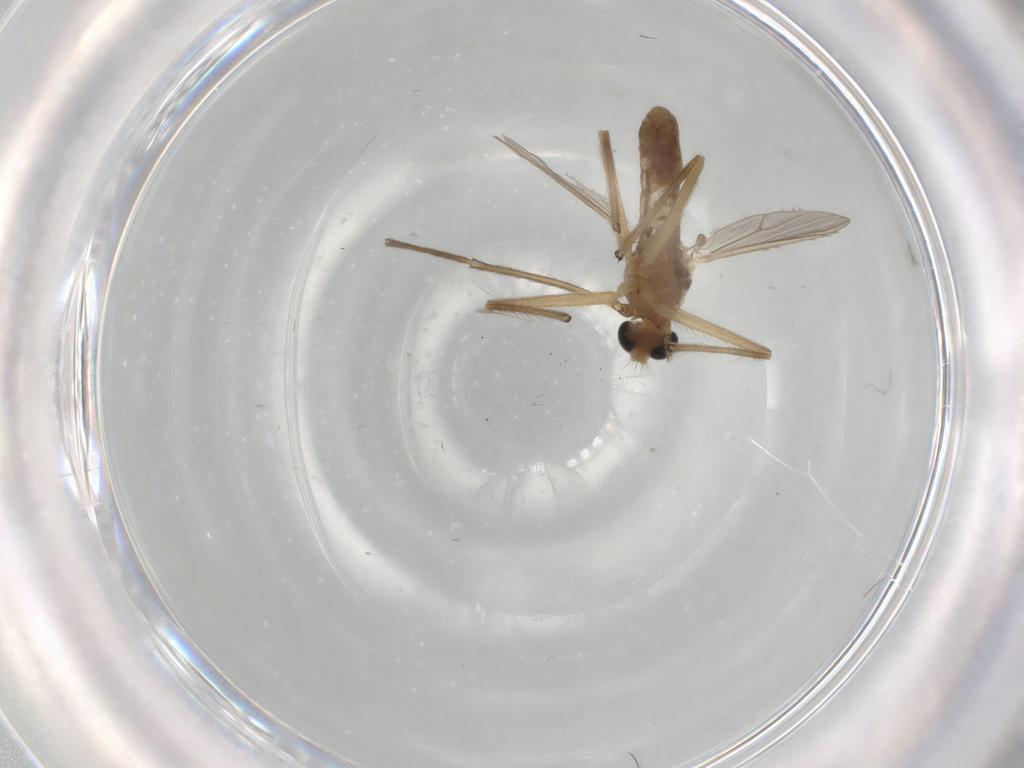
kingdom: Animalia
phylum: Arthropoda
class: Insecta
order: Diptera
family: Chironomidae
